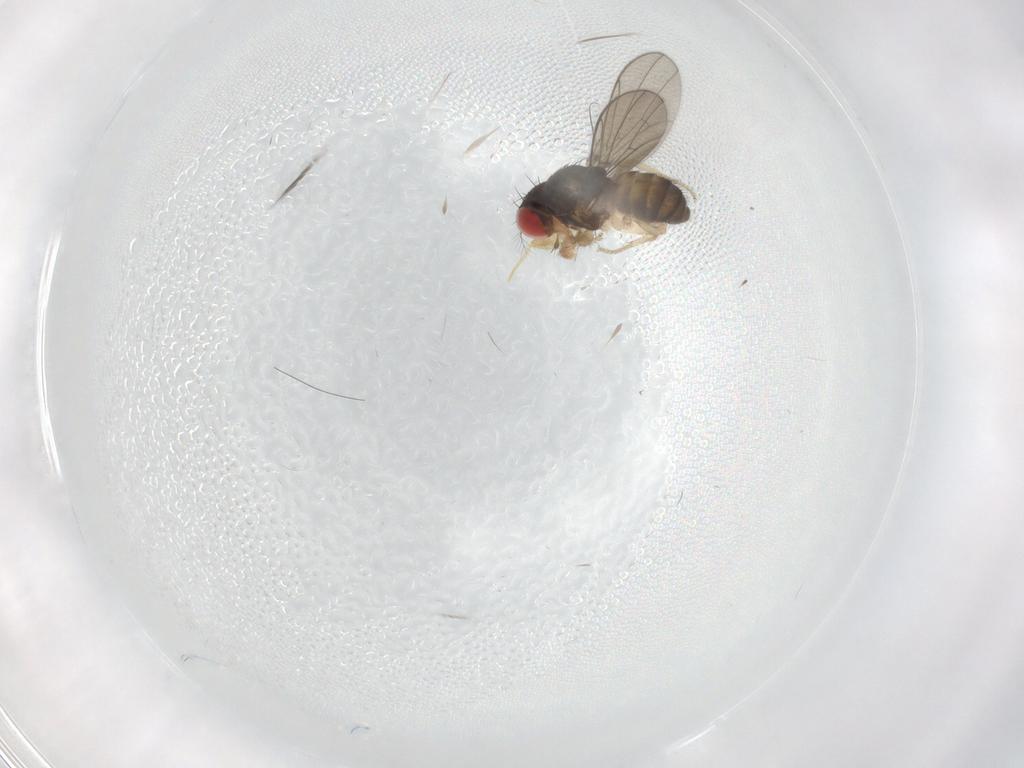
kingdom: Animalia
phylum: Arthropoda
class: Insecta
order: Diptera
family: Drosophilidae
